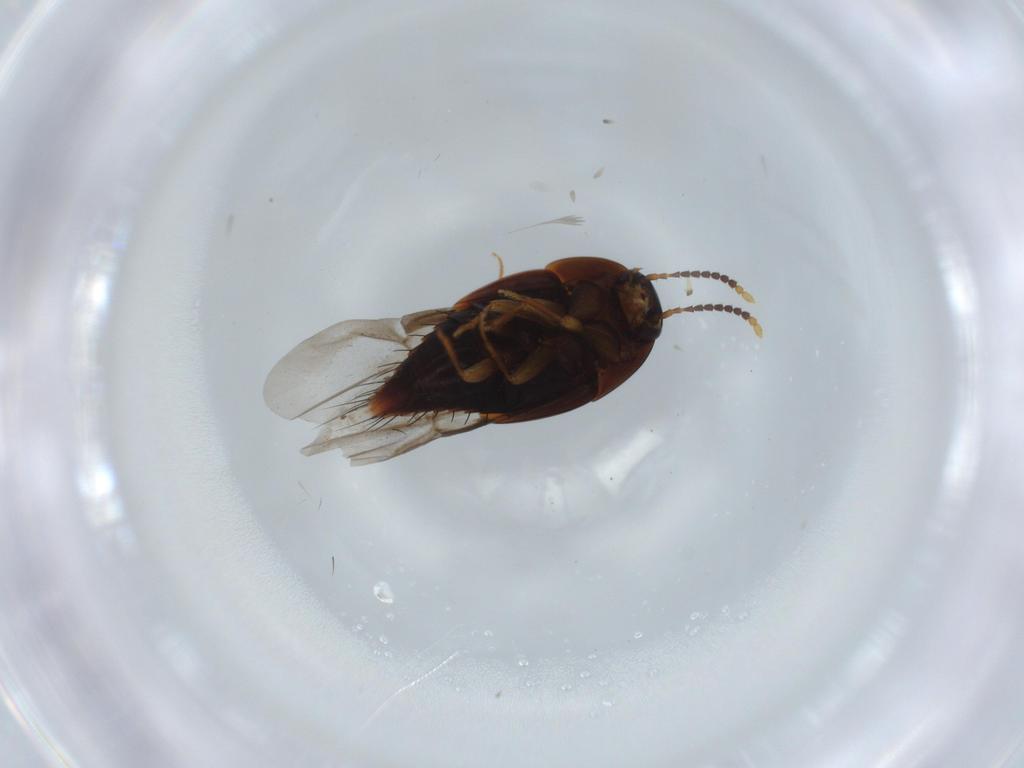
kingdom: Animalia
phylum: Arthropoda
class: Insecta
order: Coleoptera
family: Staphylinidae
